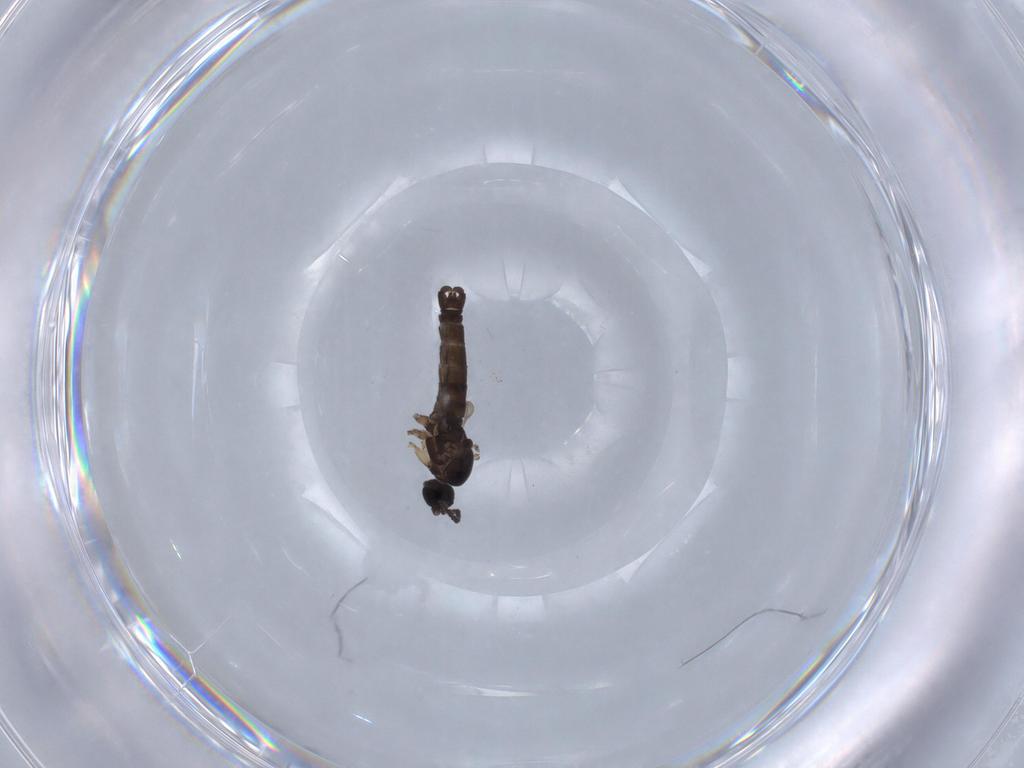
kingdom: Animalia
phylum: Arthropoda
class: Insecta
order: Diptera
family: Sciaridae
